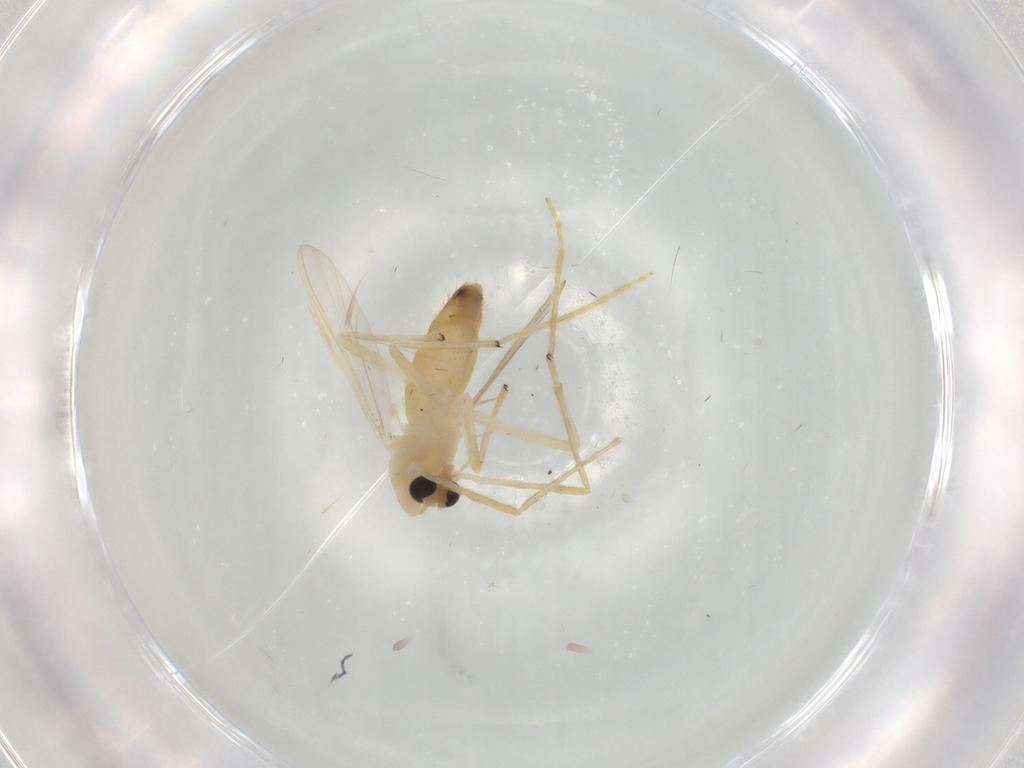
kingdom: Animalia
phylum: Arthropoda
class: Insecta
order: Diptera
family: Chironomidae
